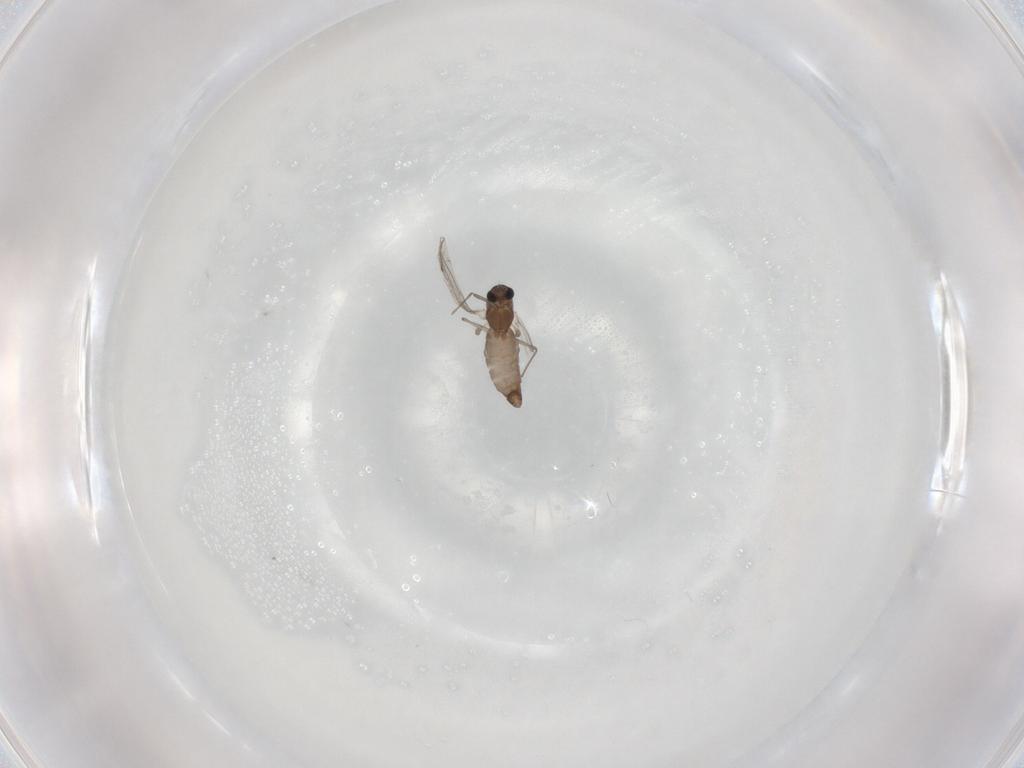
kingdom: Animalia
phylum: Arthropoda
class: Insecta
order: Diptera
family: Chironomidae
